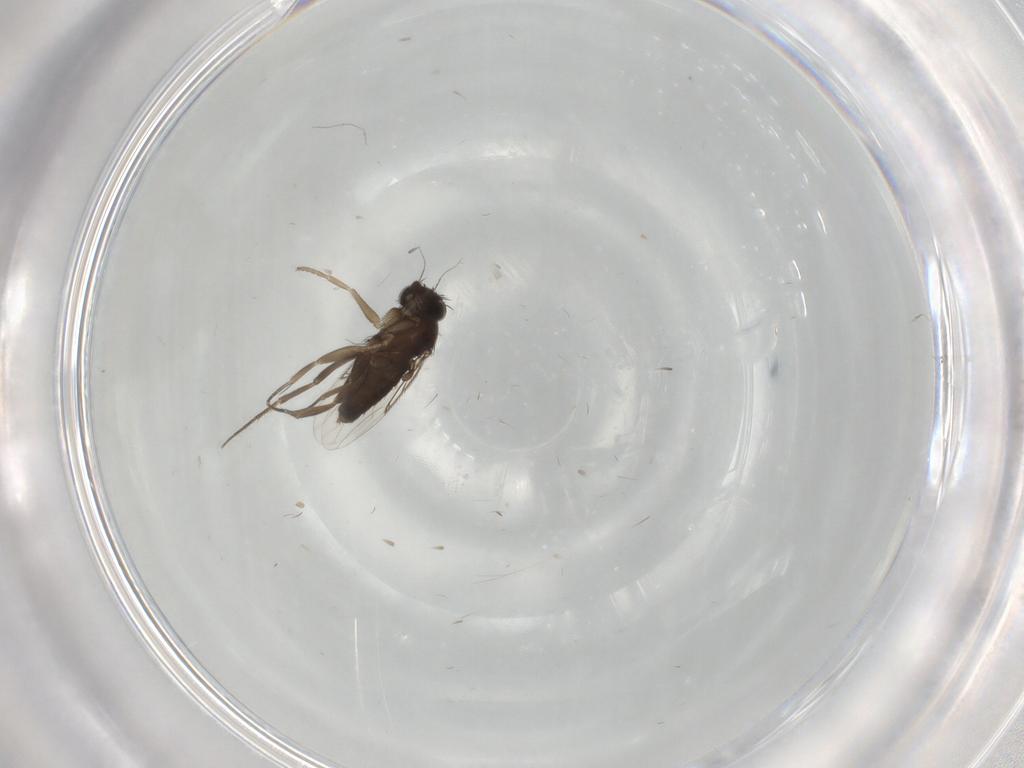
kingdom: Animalia
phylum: Arthropoda
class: Insecta
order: Diptera
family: Phoridae
